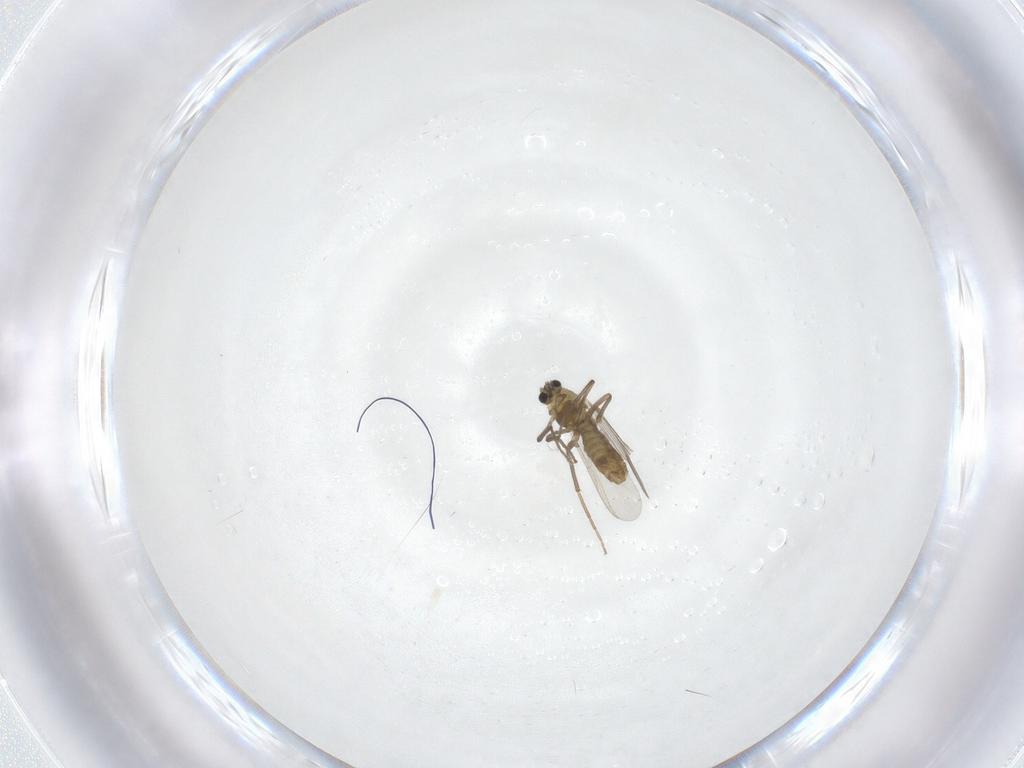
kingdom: Animalia
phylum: Arthropoda
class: Insecta
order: Diptera
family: Chironomidae
